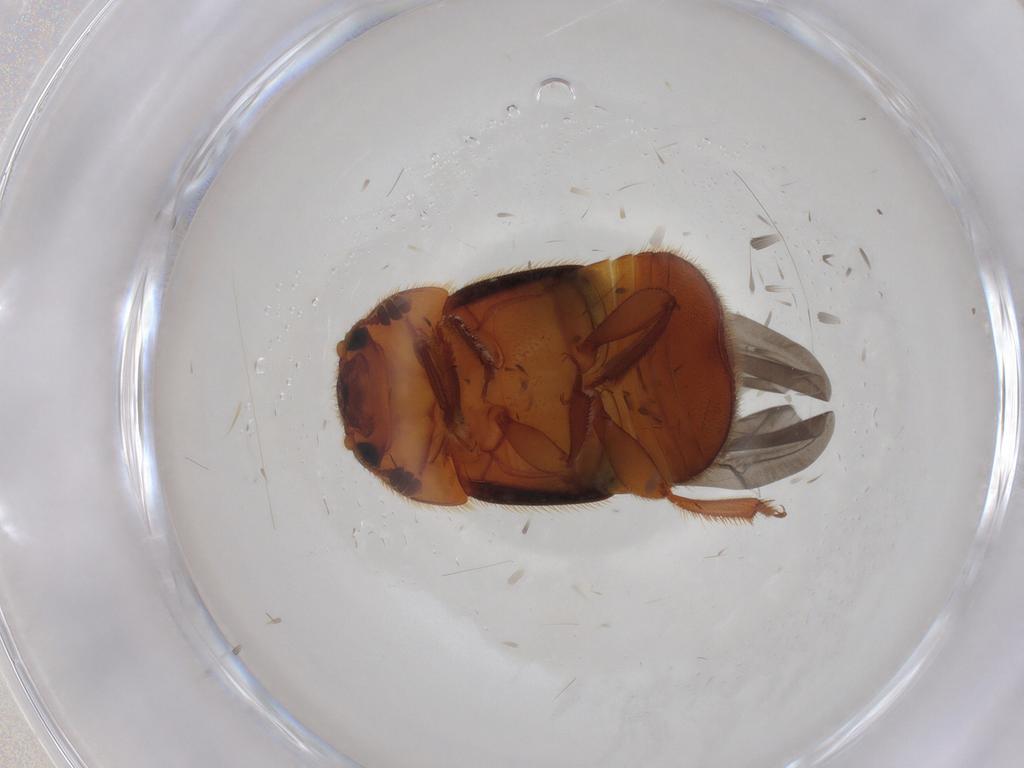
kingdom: Animalia
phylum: Arthropoda
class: Insecta
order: Coleoptera
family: Nitidulidae
